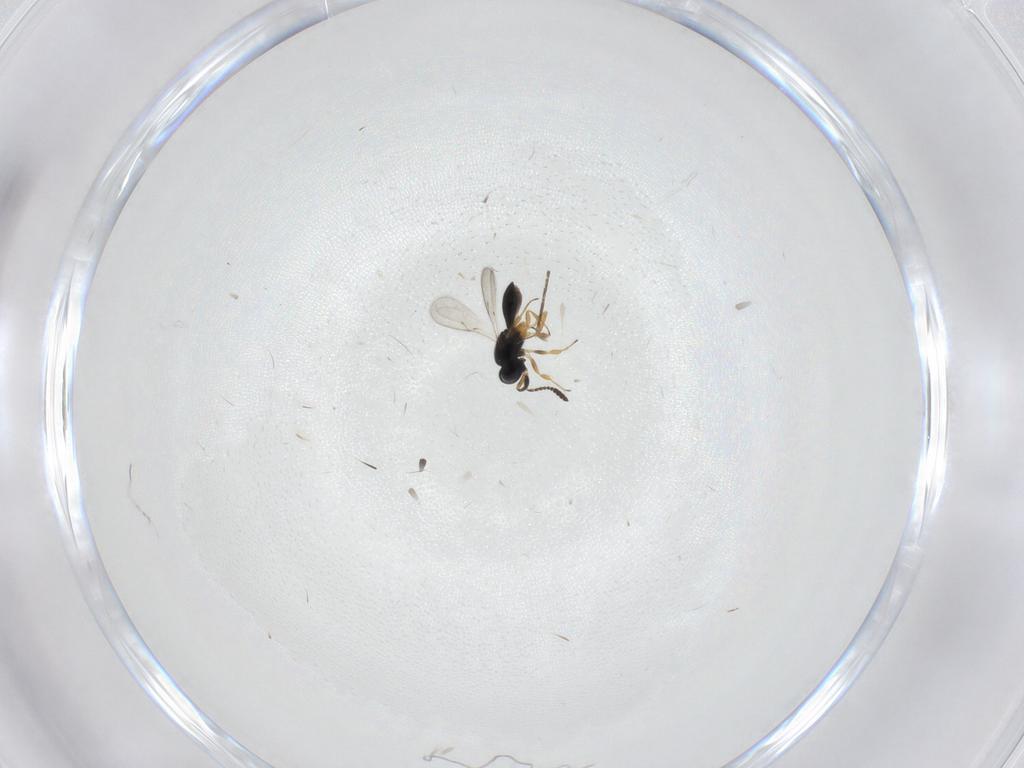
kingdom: Animalia
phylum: Arthropoda
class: Insecta
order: Hymenoptera
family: Scelionidae
